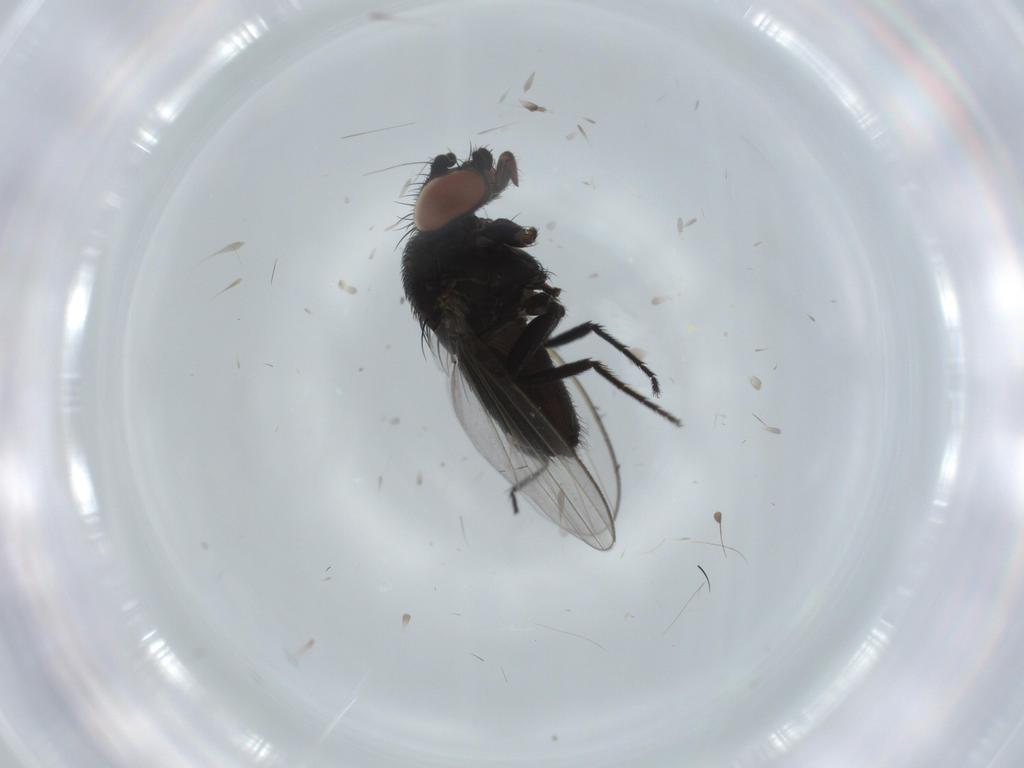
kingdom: Animalia
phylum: Arthropoda
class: Insecta
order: Diptera
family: Milichiidae
